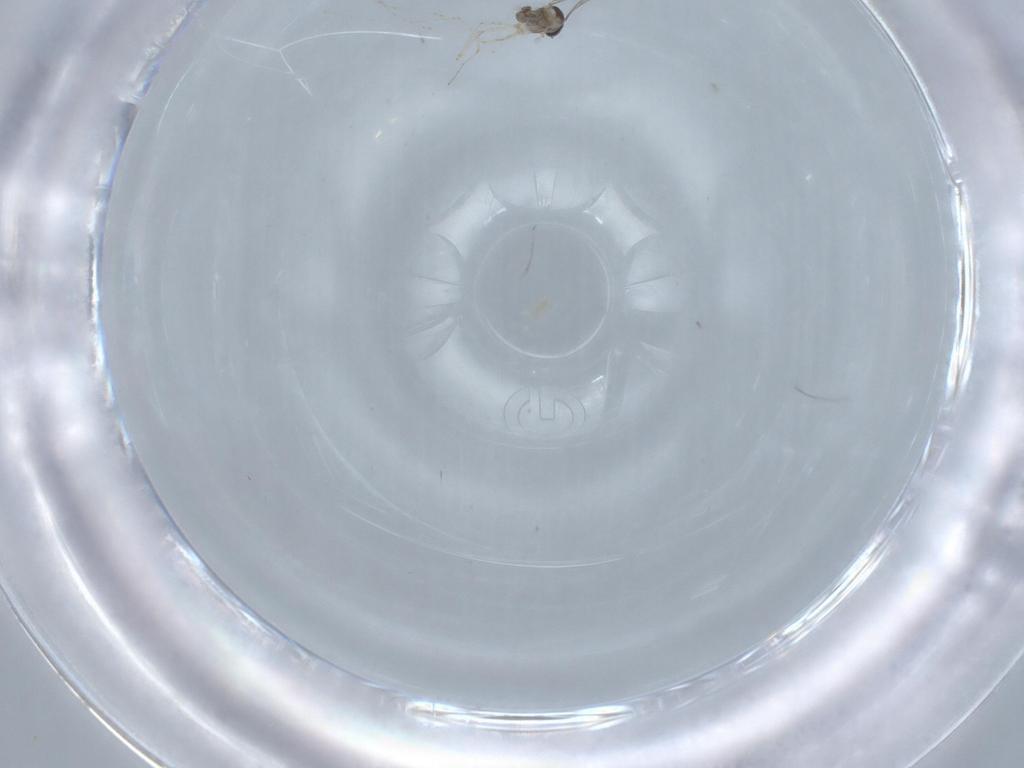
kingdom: Animalia
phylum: Arthropoda
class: Insecta
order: Diptera
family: Cecidomyiidae
